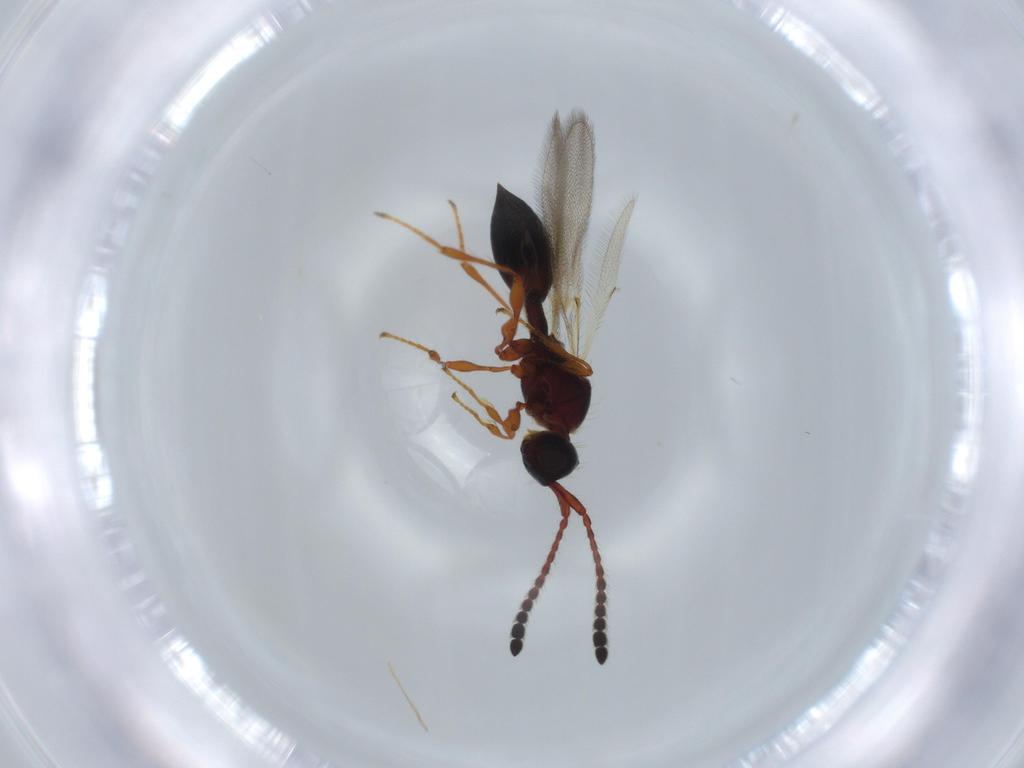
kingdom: Animalia
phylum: Arthropoda
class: Insecta
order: Hymenoptera
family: Diapriidae
